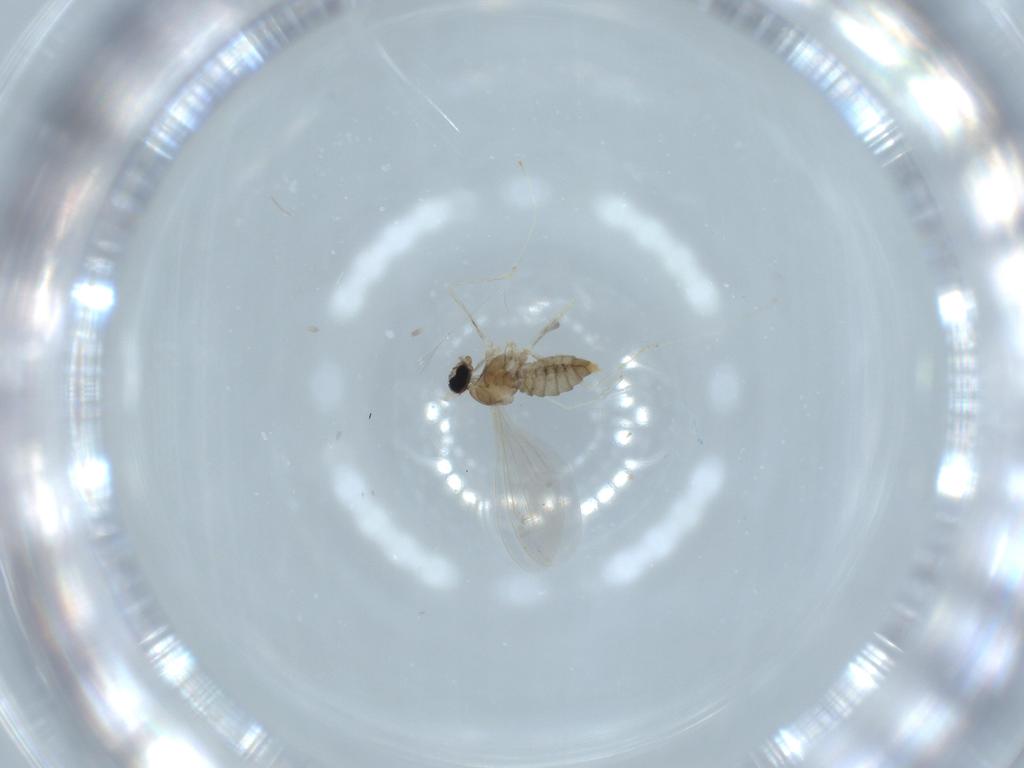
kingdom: Animalia
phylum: Arthropoda
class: Insecta
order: Diptera
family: Cecidomyiidae
